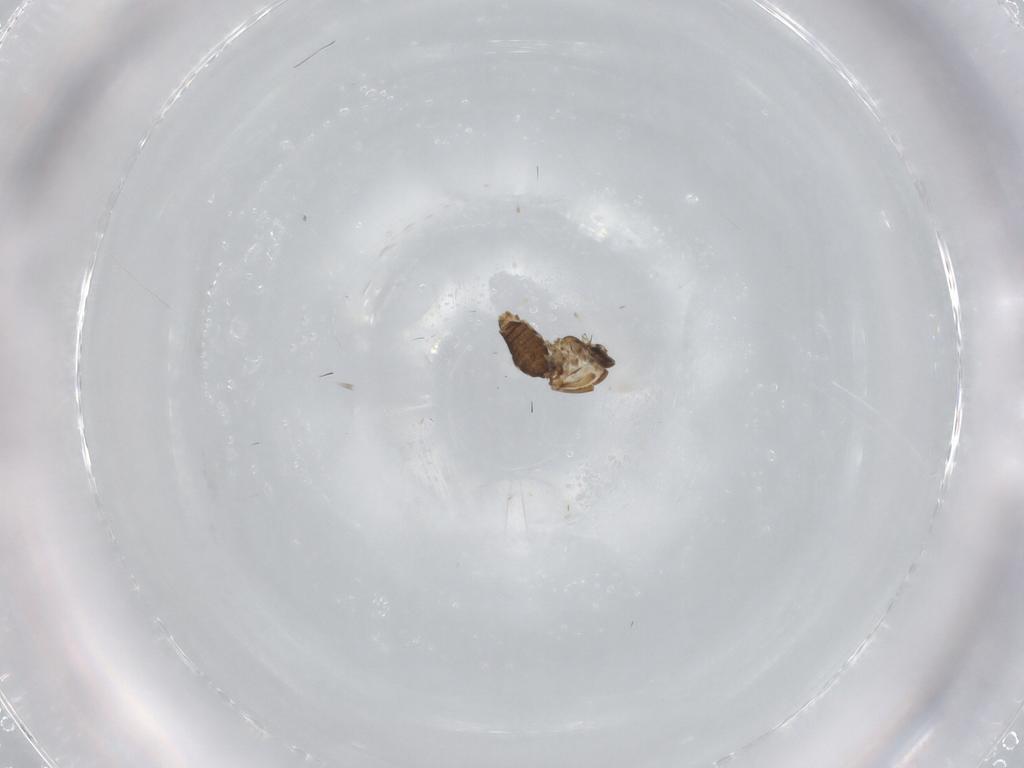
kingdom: Animalia
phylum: Arthropoda
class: Insecta
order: Diptera
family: Ceratopogonidae
